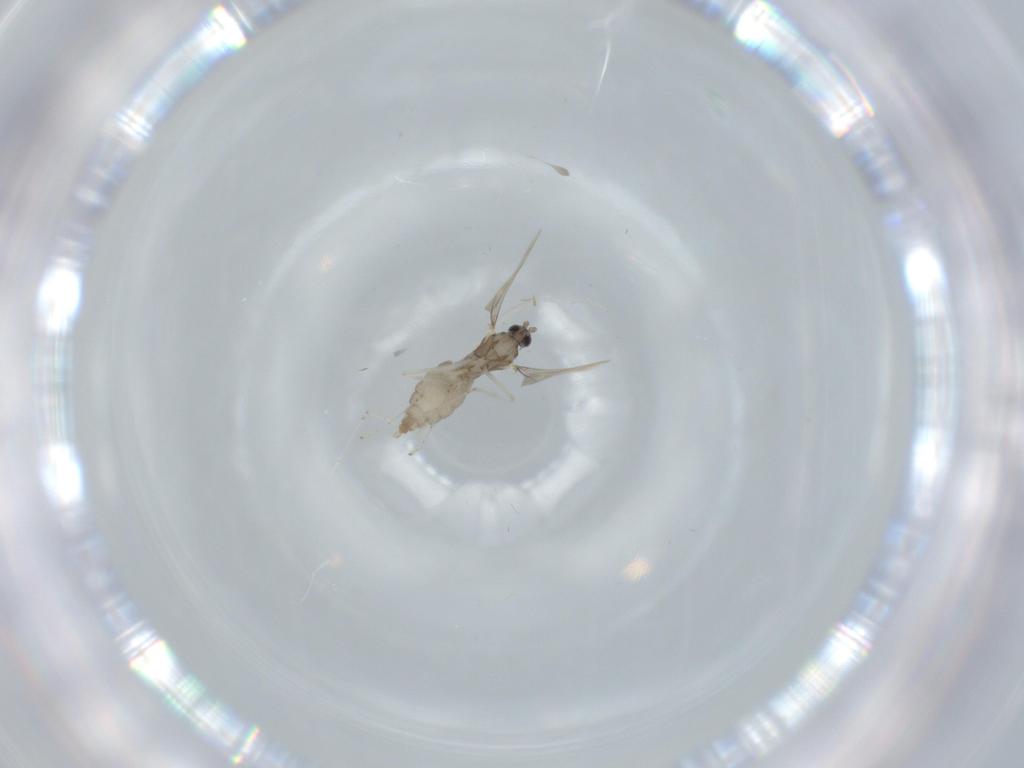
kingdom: Animalia
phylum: Arthropoda
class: Insecta
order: Diptera
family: Cecidomyiidae
